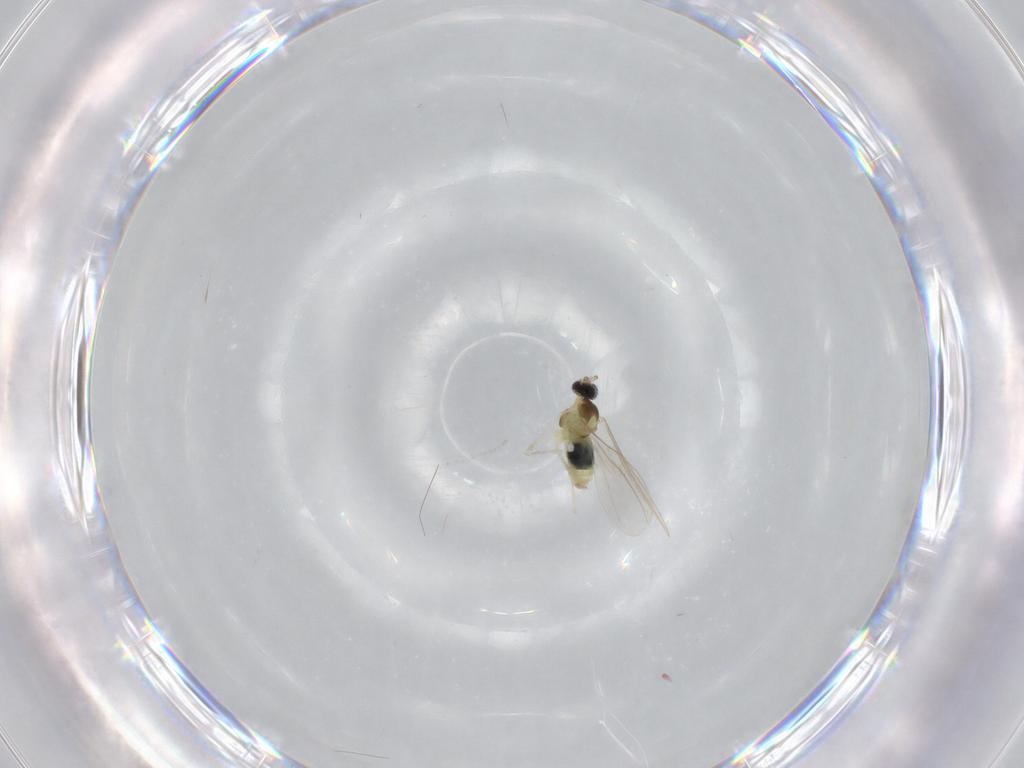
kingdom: Animalia
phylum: Arthropoda
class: Insecta
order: Diptera
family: Cecidomyiidae
